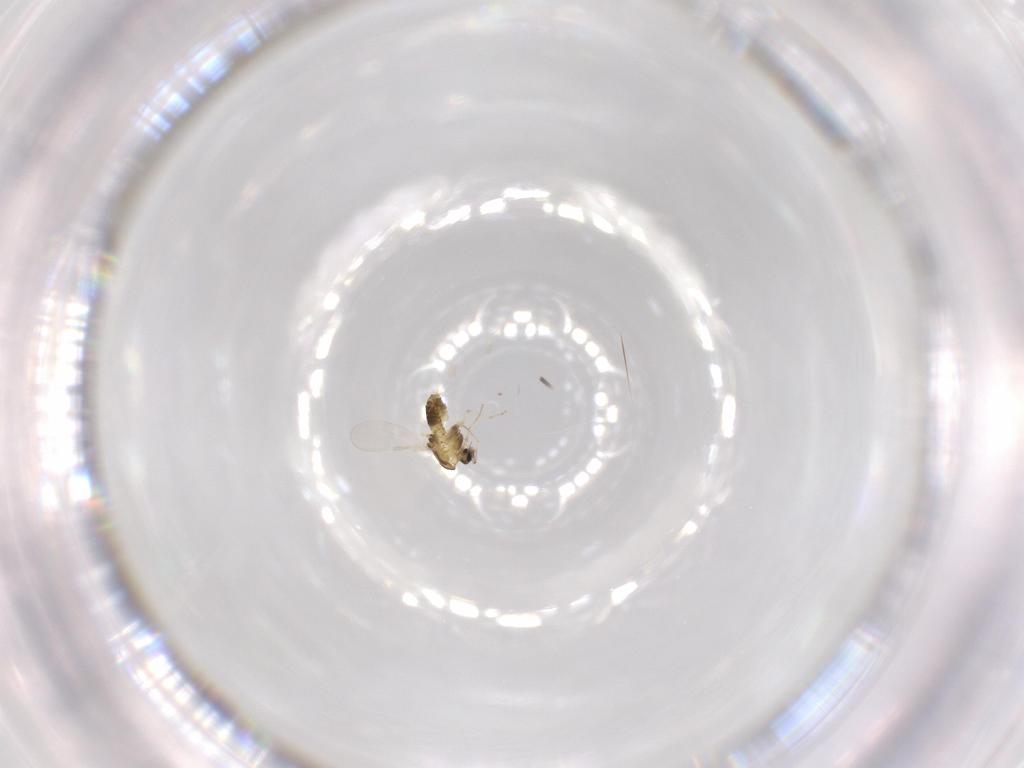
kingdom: Animalia
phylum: Arthropoda
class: Insecta
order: Diptera
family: Chironomidae
